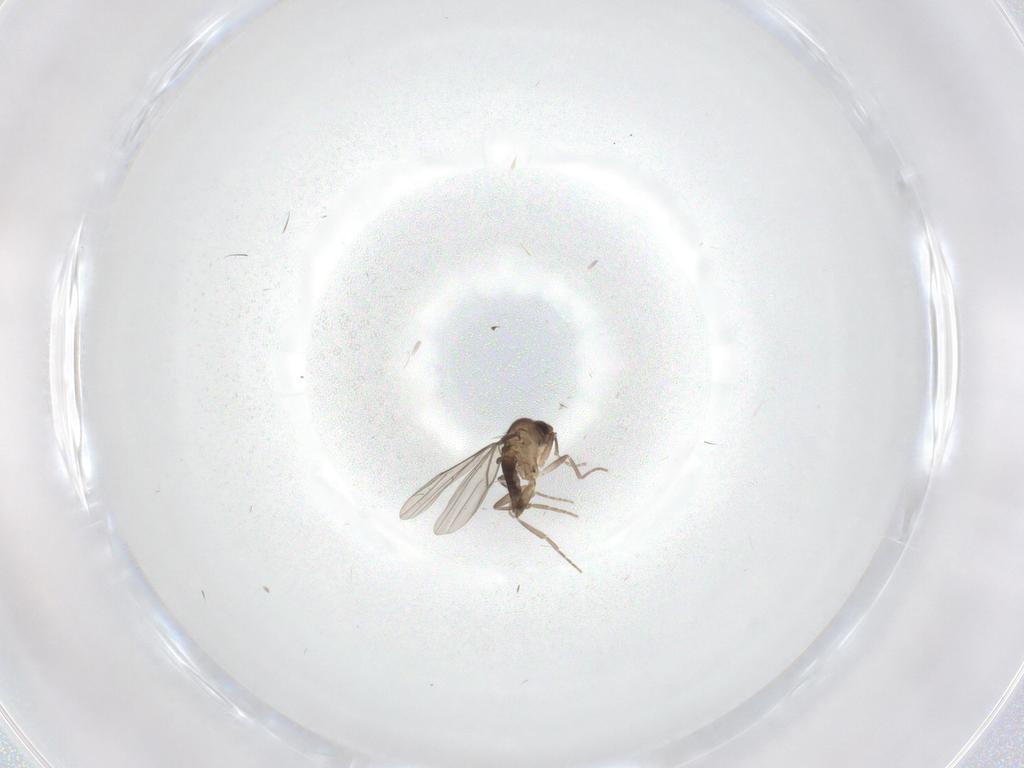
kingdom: Animalia
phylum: Arthropoda
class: Insecta
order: Diptera
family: Phoridae
